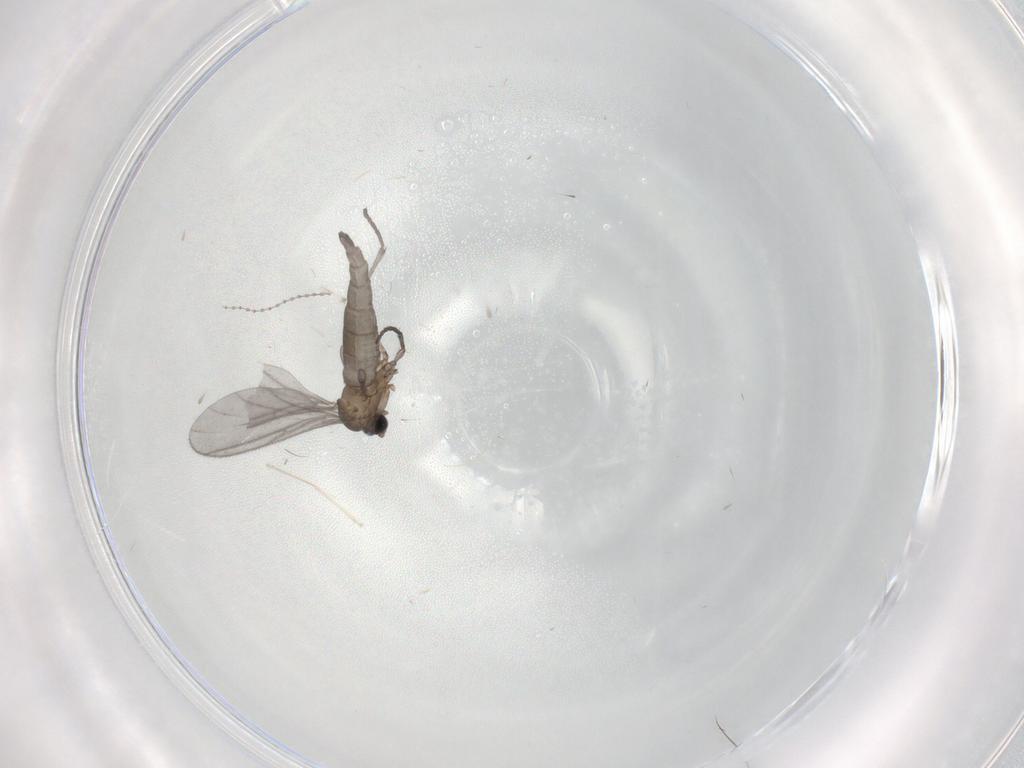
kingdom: Animalia
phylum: Arthropoda
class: Insecta
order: Diptera
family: Sciaridae
